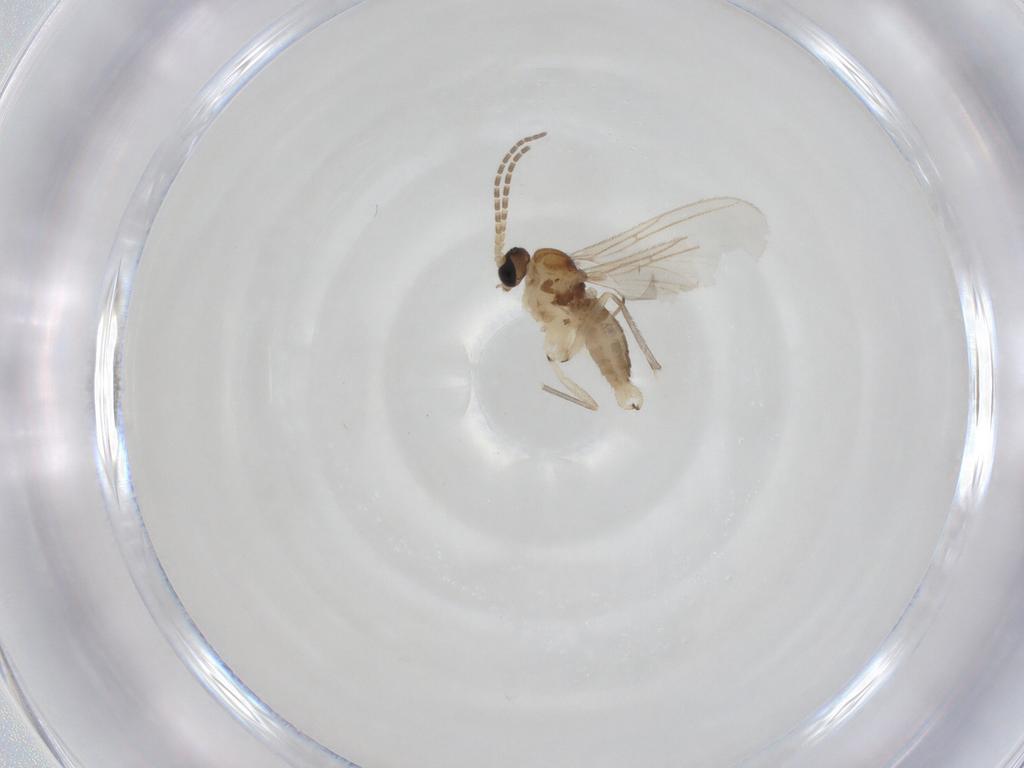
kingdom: Animalia
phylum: Arthropoda
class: Insecta
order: Diptera
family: Sciaridae
